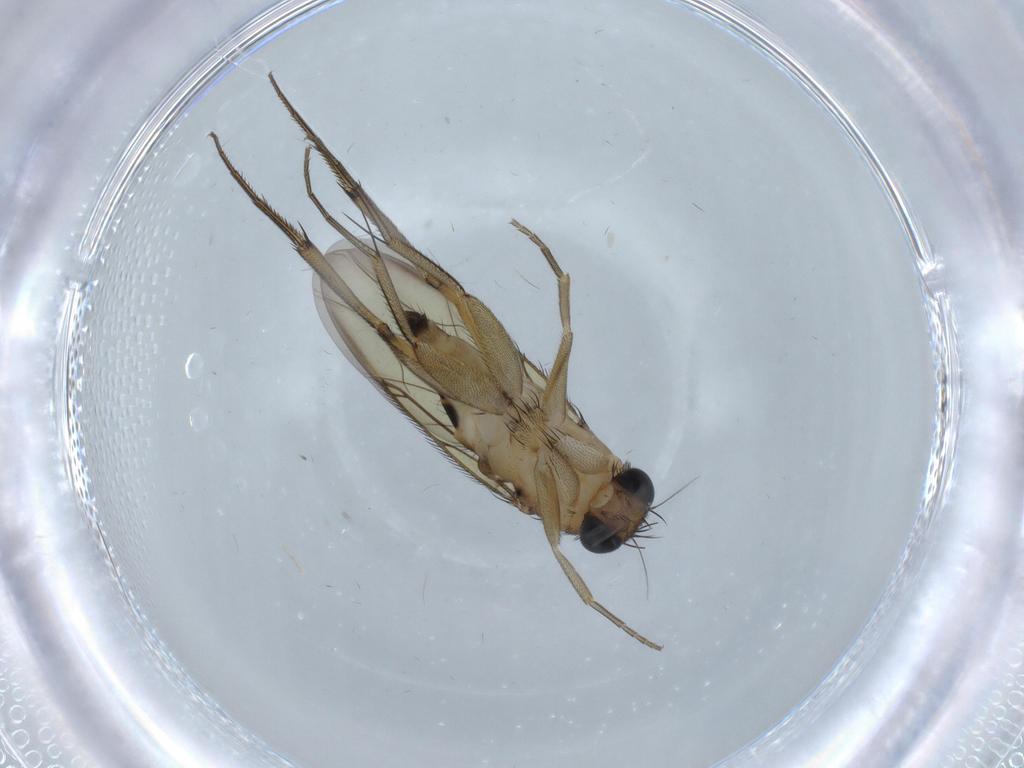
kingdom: Animalia
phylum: Arthropoda
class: Insecta
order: Diptera
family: Phoridae
